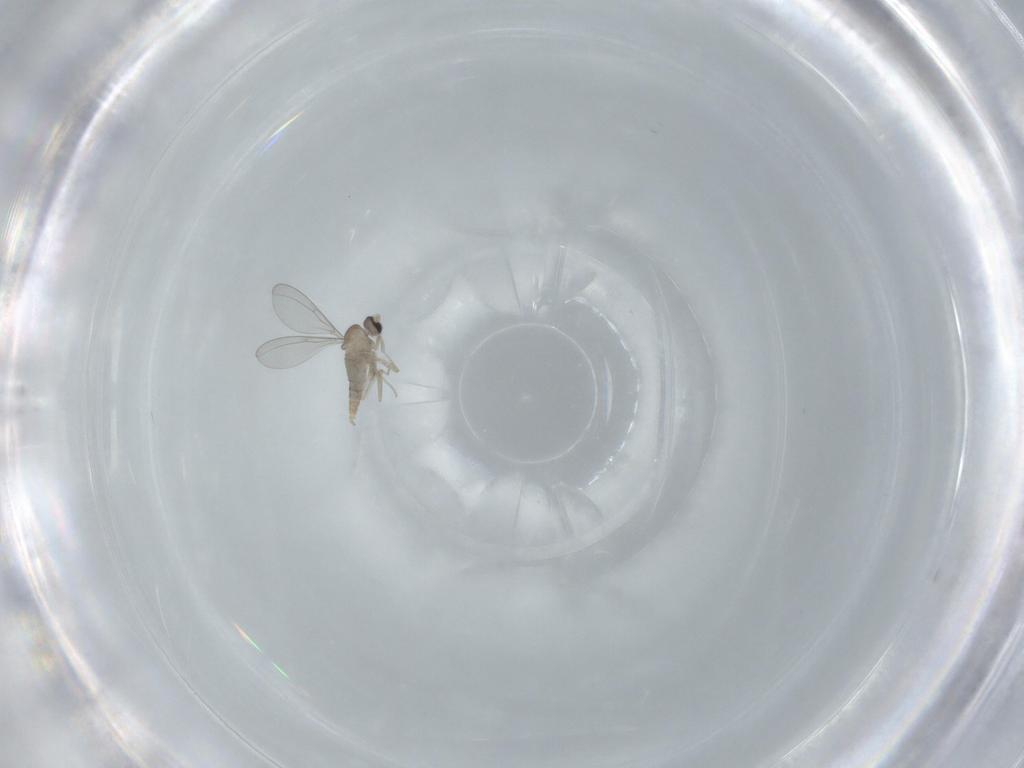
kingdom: Animalia
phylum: Arthropoda
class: Insecta
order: Diptera
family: Cecidomyiidae
